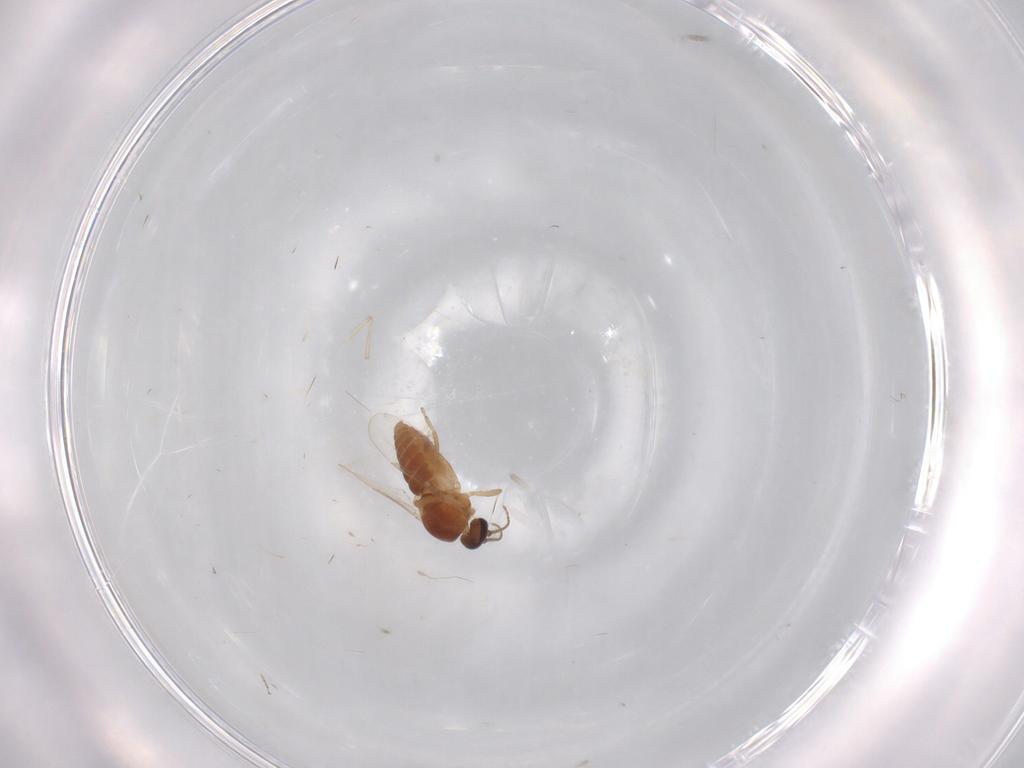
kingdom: Animalia
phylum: Arthropoda
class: Insecta
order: Diptera
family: Ceratopogonidae
